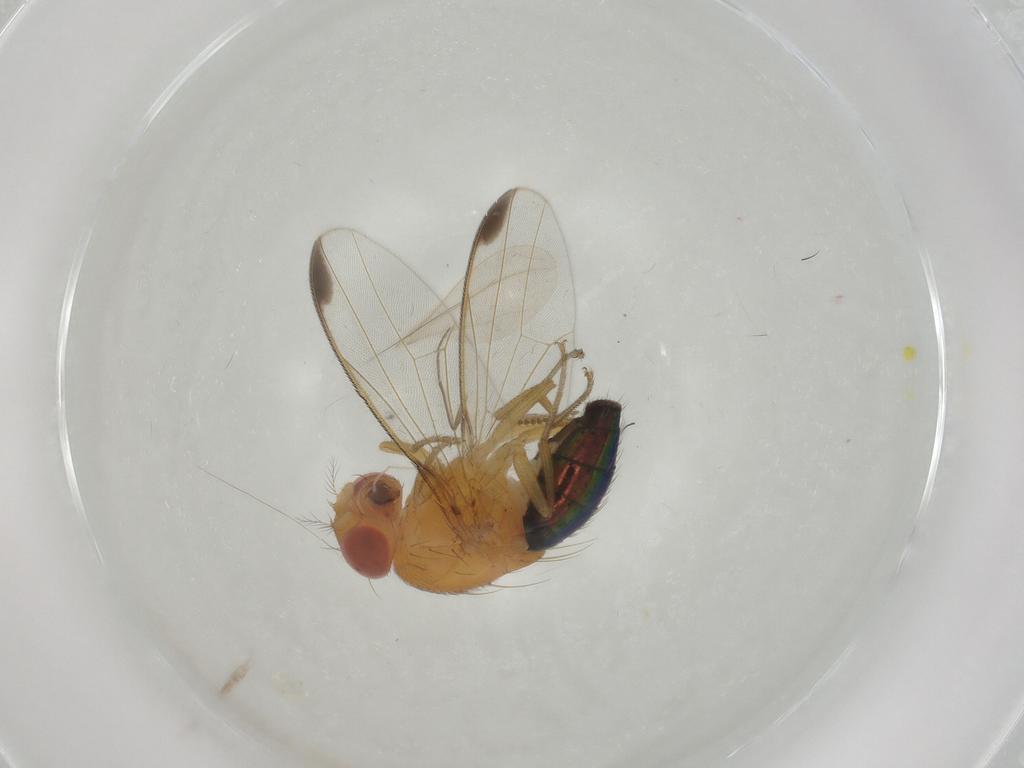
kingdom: Animalia
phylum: Arthropoda
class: Insecta
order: Diptera
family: Drosophilidae
